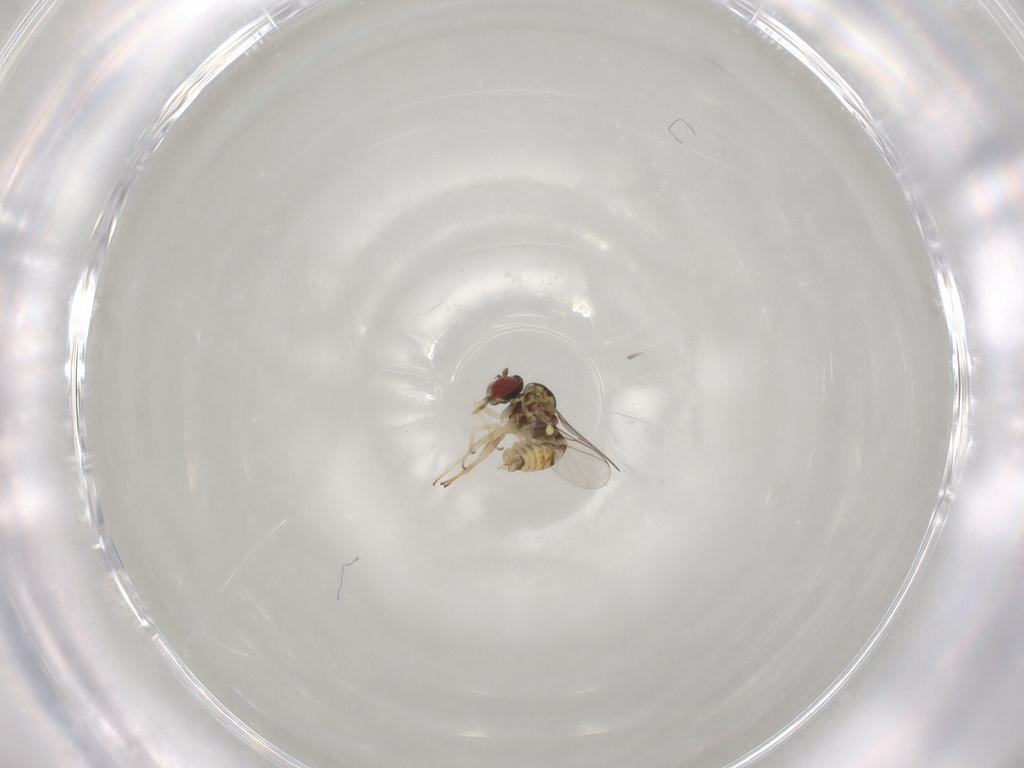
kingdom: Animalia
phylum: Arthropoda
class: Insecta
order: Diptera
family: Bombyliidae
